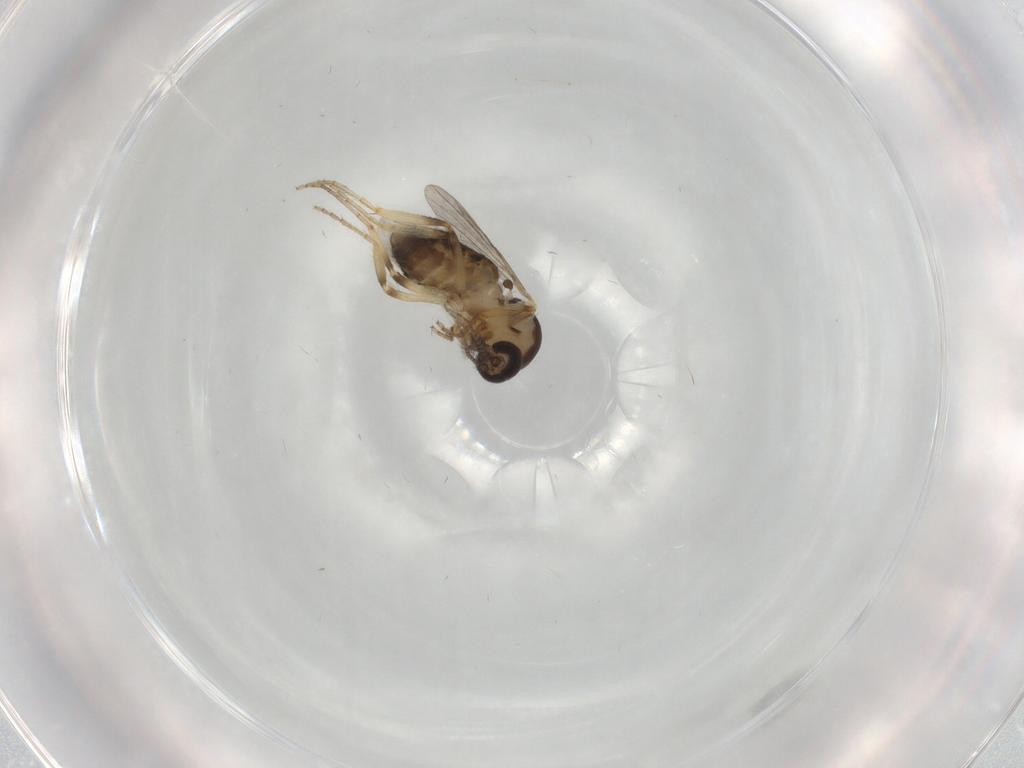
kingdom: Animalia
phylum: Arthropoda
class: Insecta
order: Diptera
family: Ceratopogonidae
